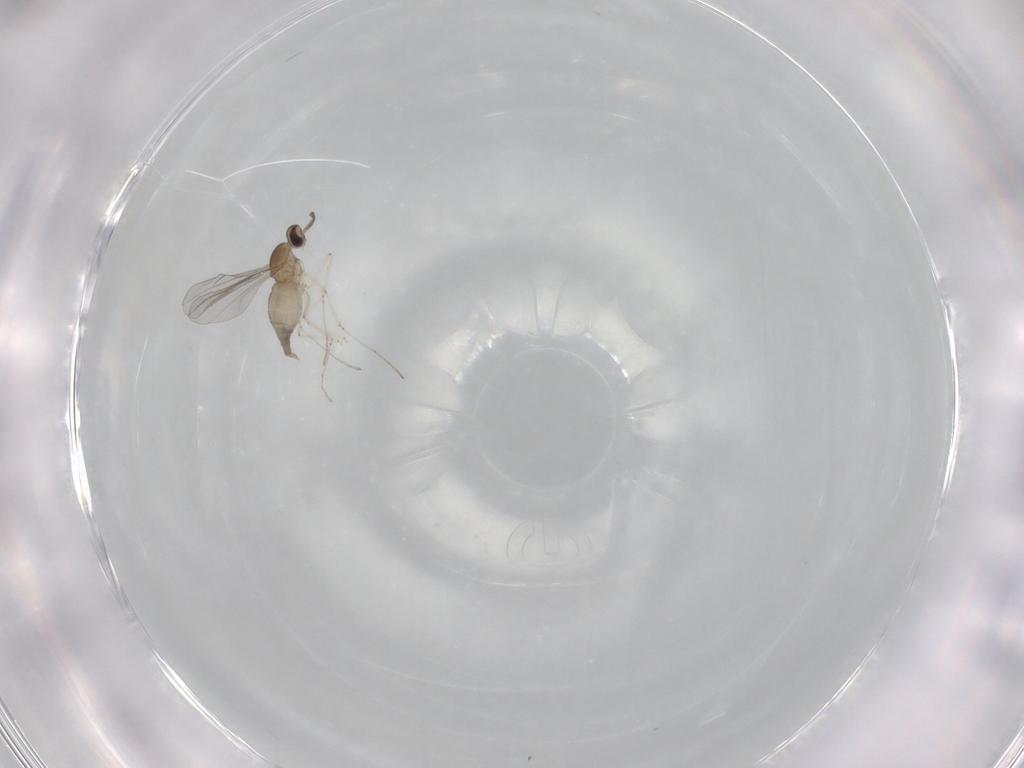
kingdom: Animalia
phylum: Arthropoda
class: Insecta
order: Diptera
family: Cecidomyiidae
